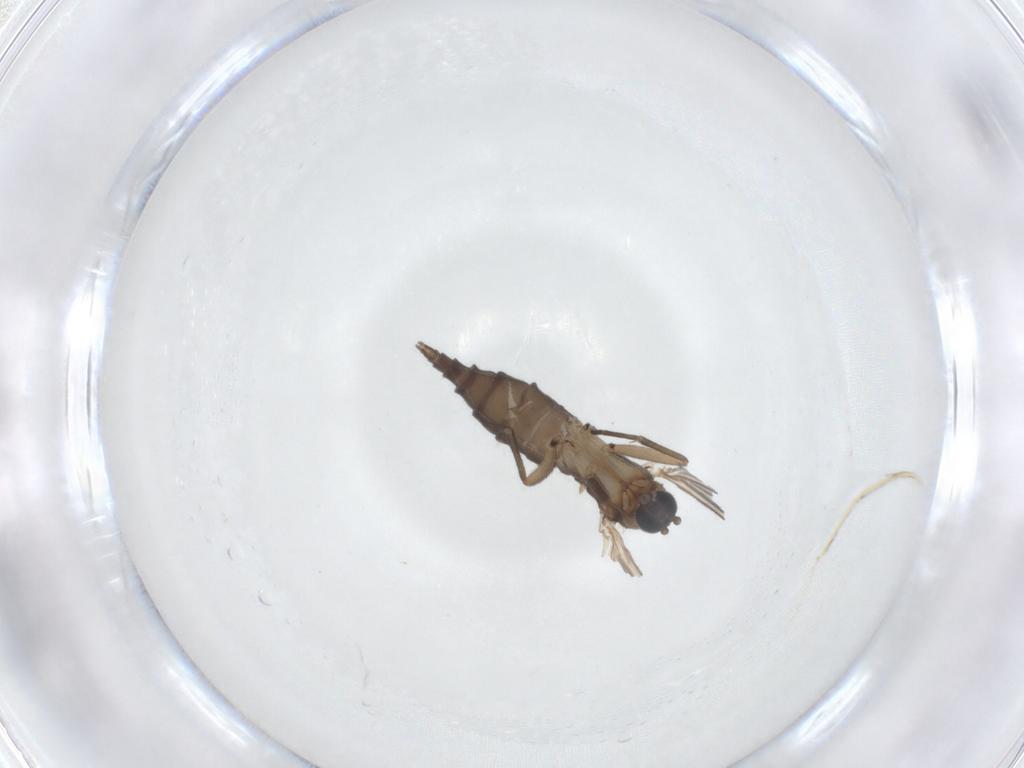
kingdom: Animalia
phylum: Arthropoda
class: Insecta
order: Diptera
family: Sciaridae
